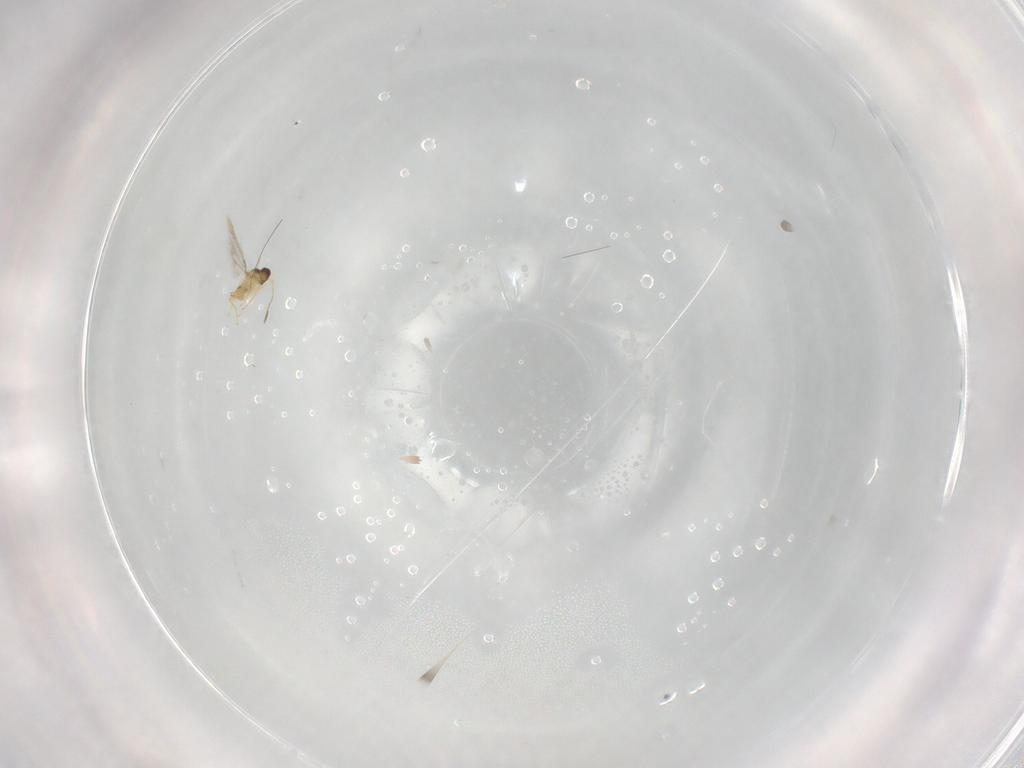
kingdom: Animalia
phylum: Arthropoda
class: Insecta
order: Hymenoptera
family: Mymaridae
